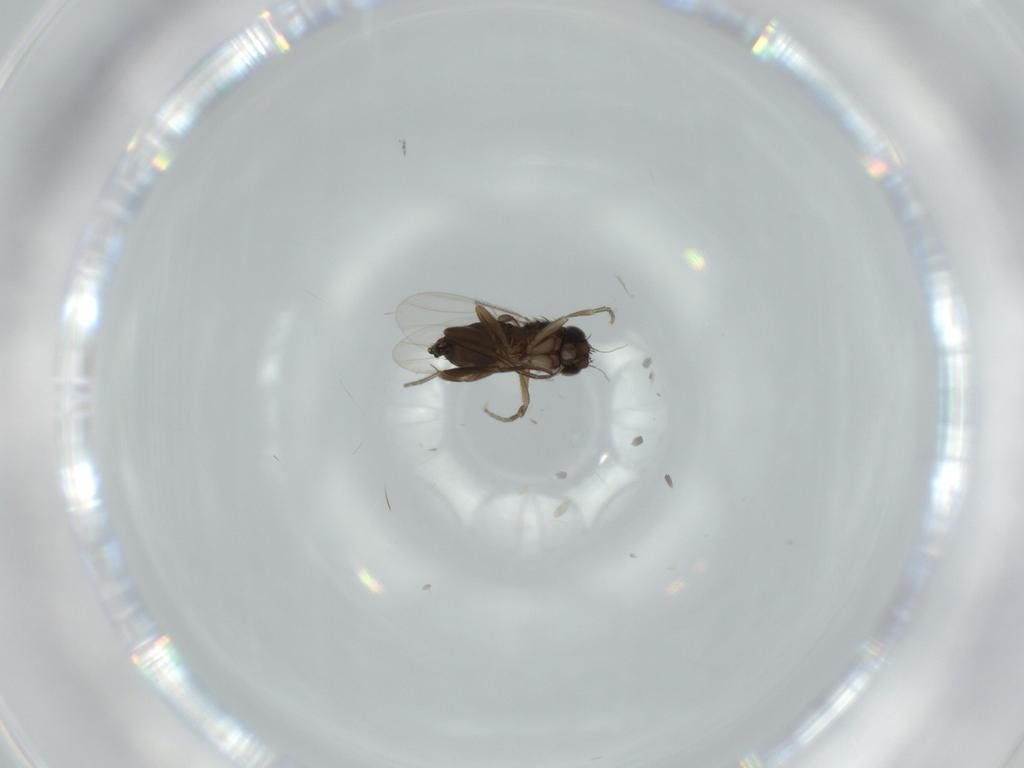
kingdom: Animalia
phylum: Arthropoda
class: Insecta
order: Diptera
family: Phoridae
